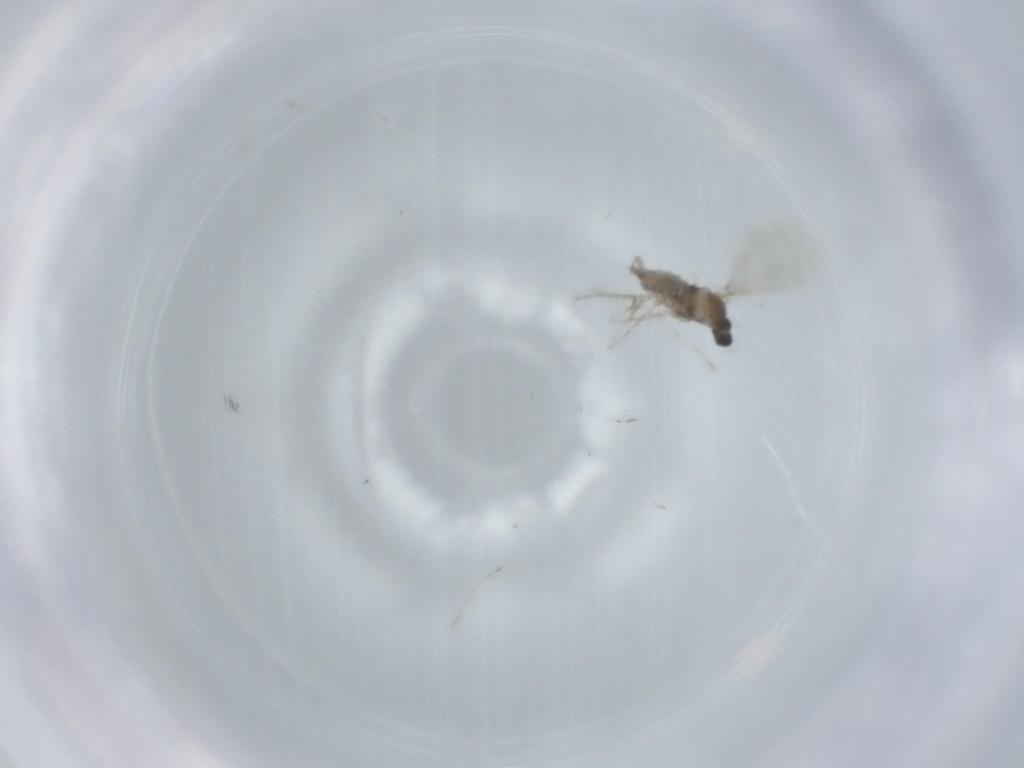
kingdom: Animalia
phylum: Arthropoda
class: Insecta
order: Diptera
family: Cecidomyiidae
